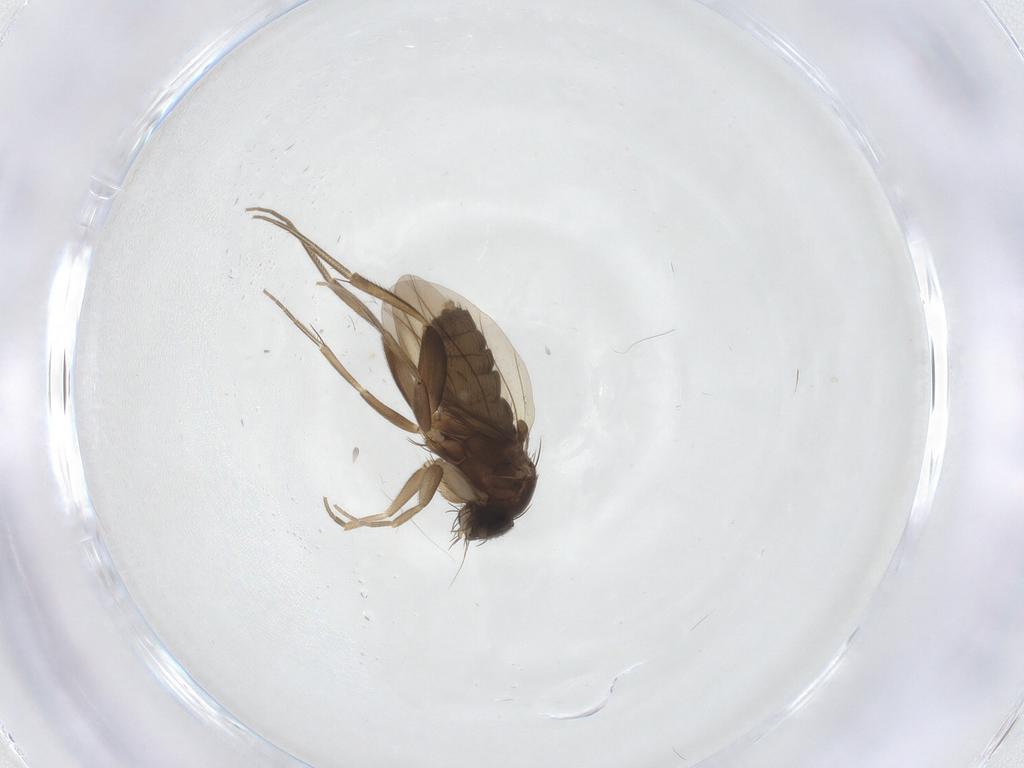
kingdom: Animalia
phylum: Arthropoda
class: Insecta
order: Diptera
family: Phoridae
